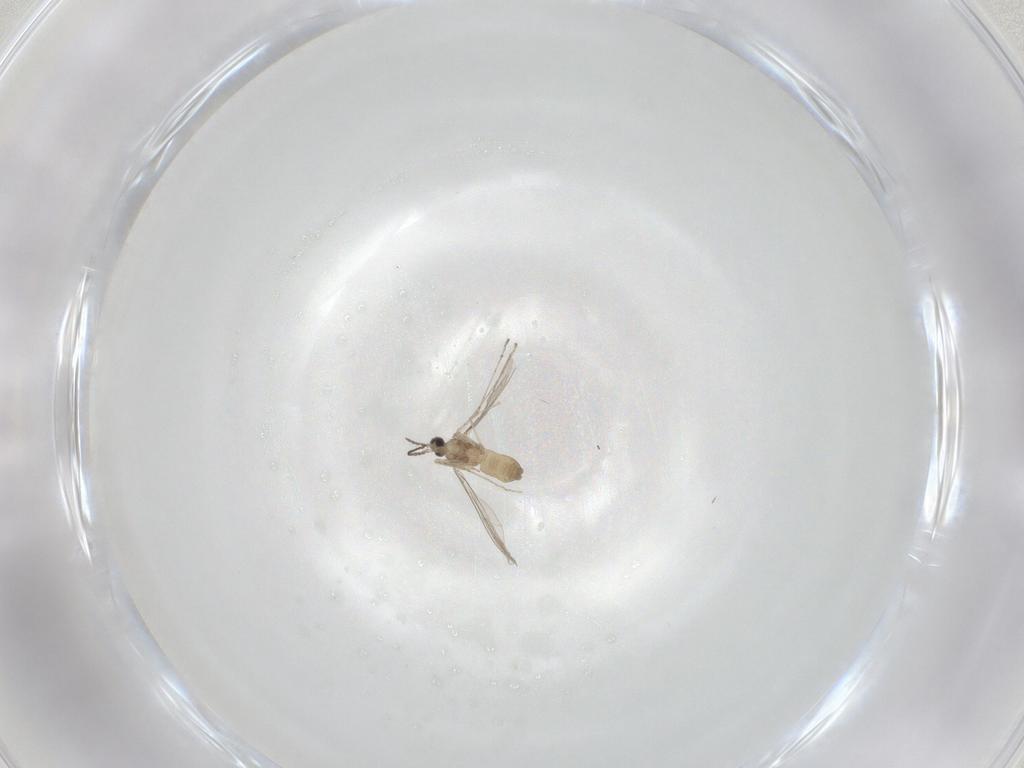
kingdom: Animalia
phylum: Arthropoda
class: Insecta
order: Diptera
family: Cecidomyiidae
